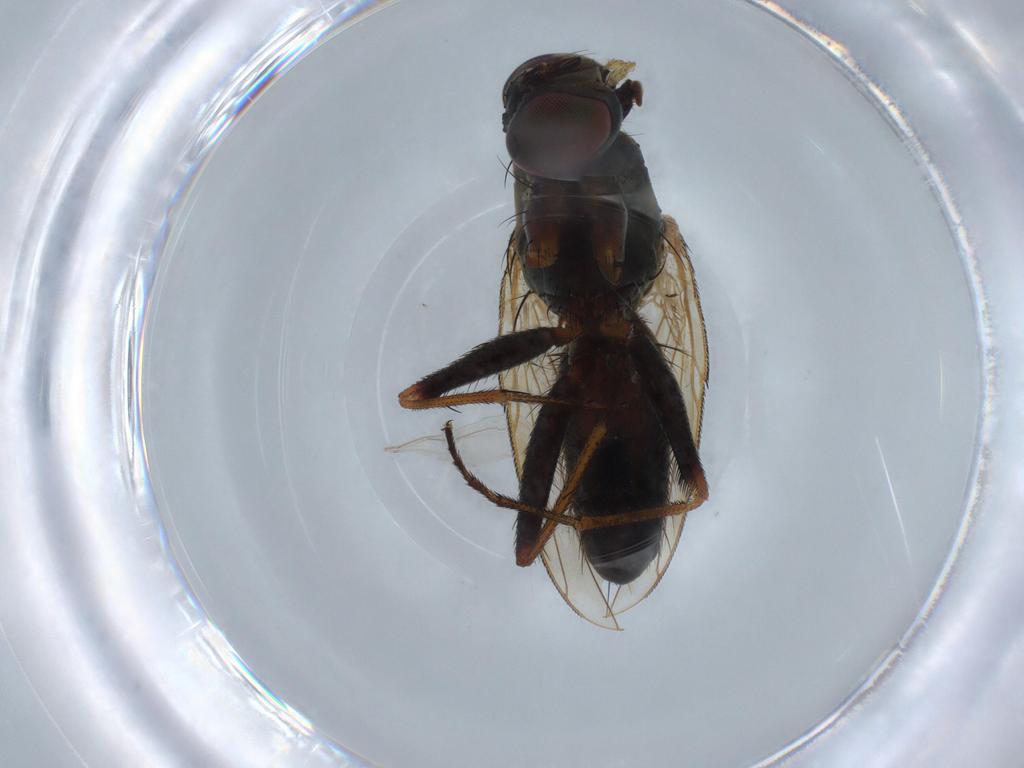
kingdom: Animalia
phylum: Arthropoda
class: Insecta
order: Diptera
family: Muscidae
